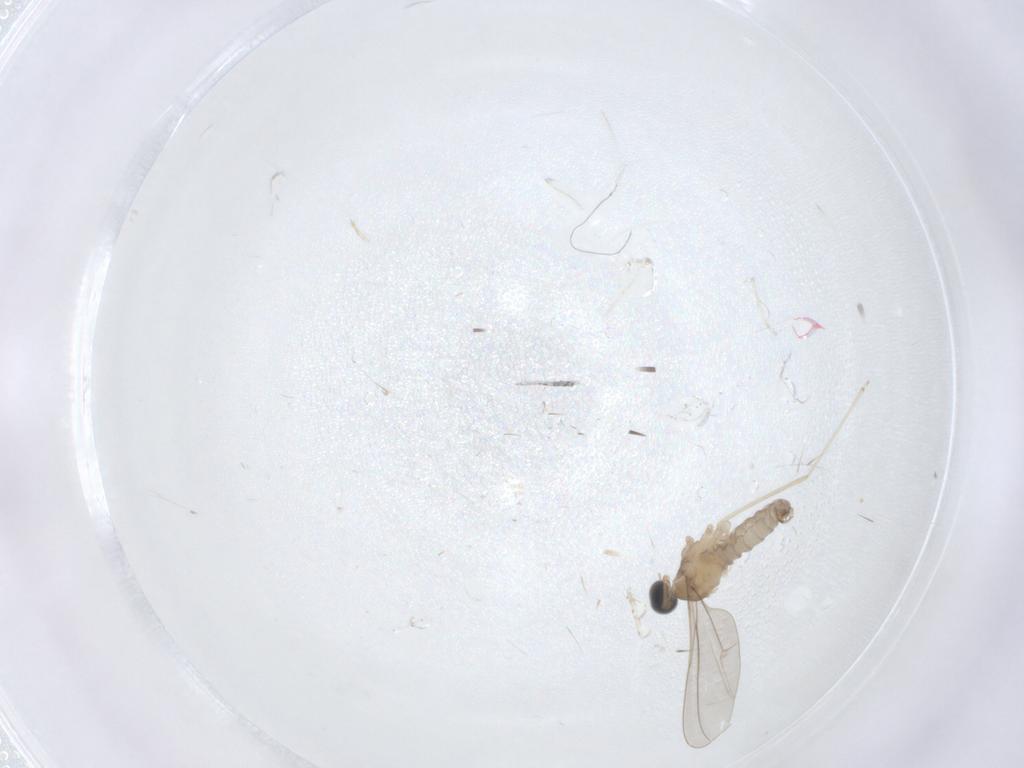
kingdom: Animalia
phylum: Arthropoda
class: Insecta
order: Diptera
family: Cecidomyiidae
